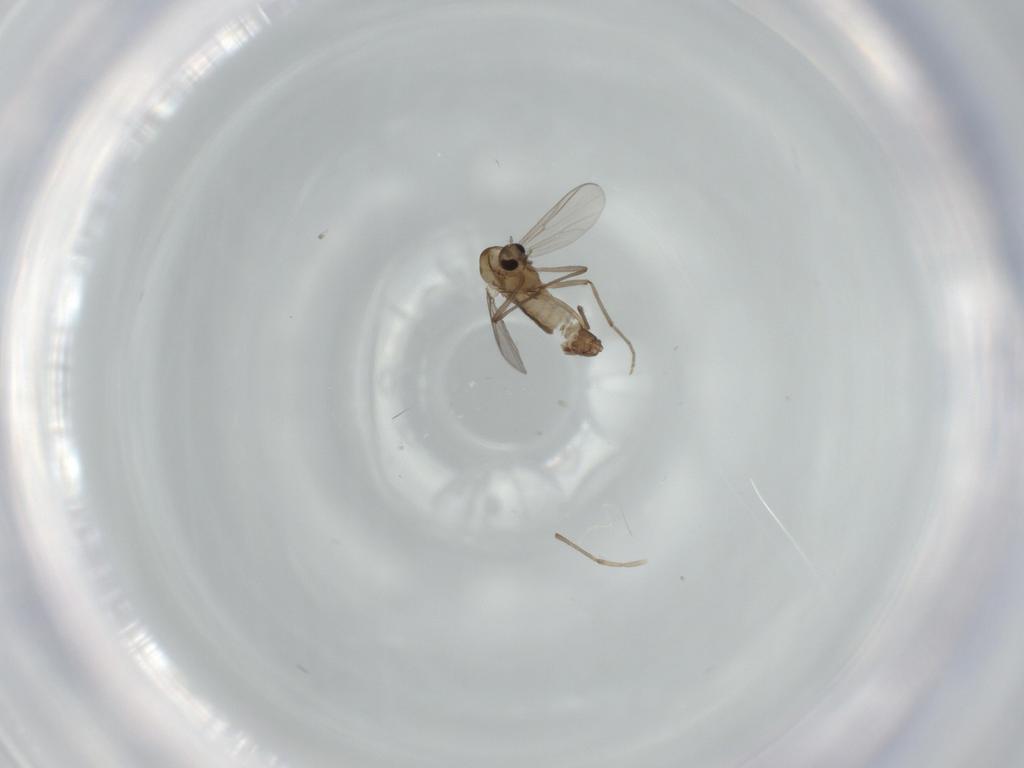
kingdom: Animalia
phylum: Arthropoda
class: Insecta
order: Diptera
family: Chironomidae
